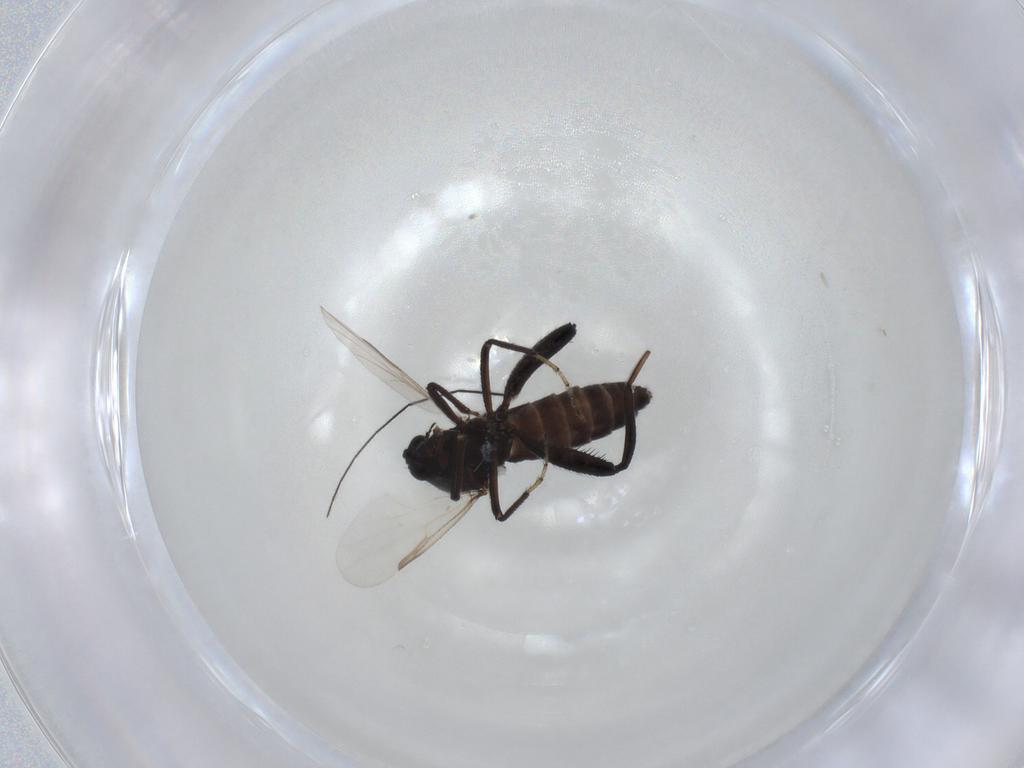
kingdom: Animalia
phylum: Arthropoda
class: Insecta
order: Diptera
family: Ceratopogonidae
